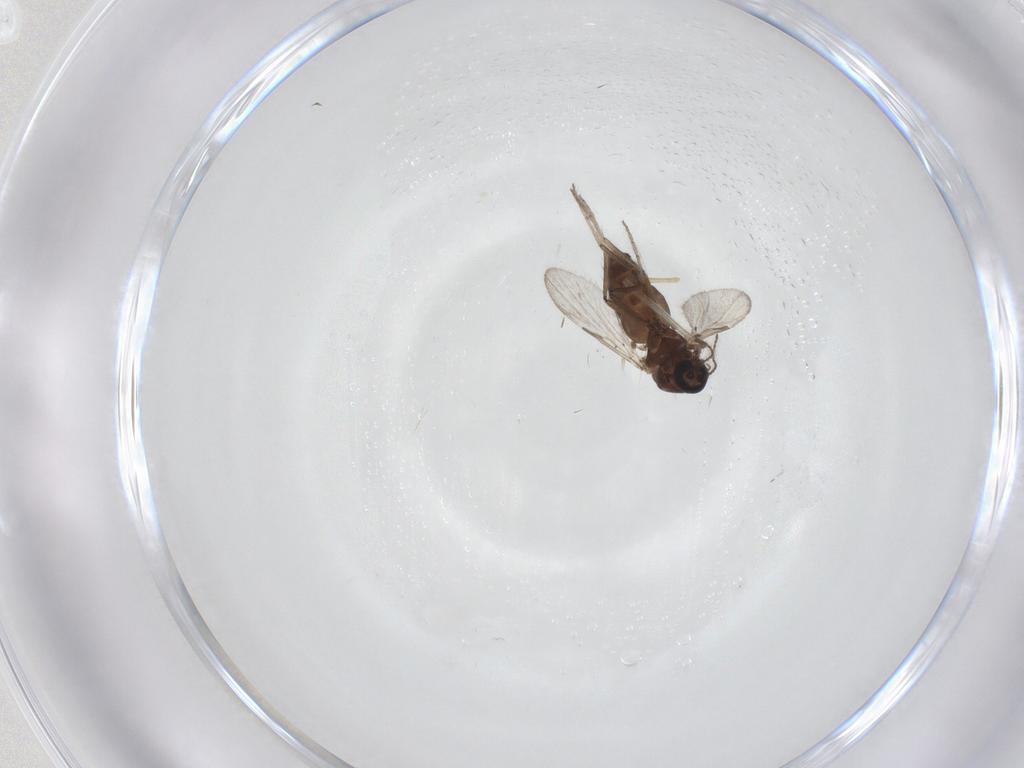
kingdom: Animalia
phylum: Arthropoda
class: Insecta
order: Diptera
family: Ceratopogonidae
